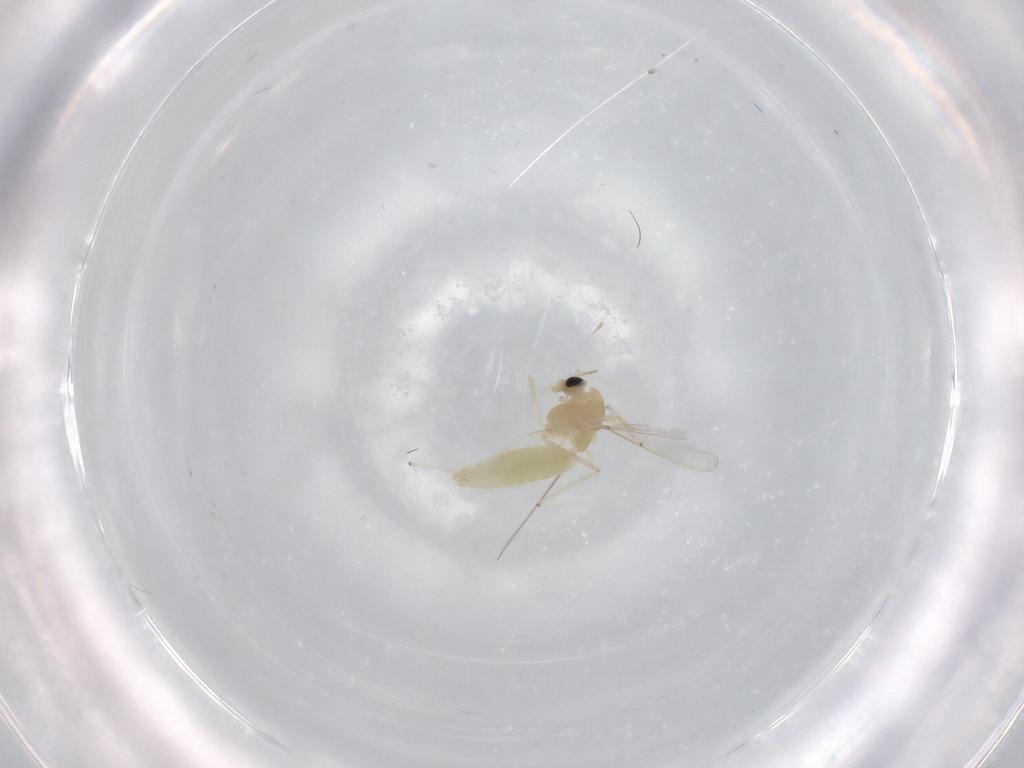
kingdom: Animalia
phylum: Arthropoda
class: Insecta
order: Diptera
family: Chironomidae
